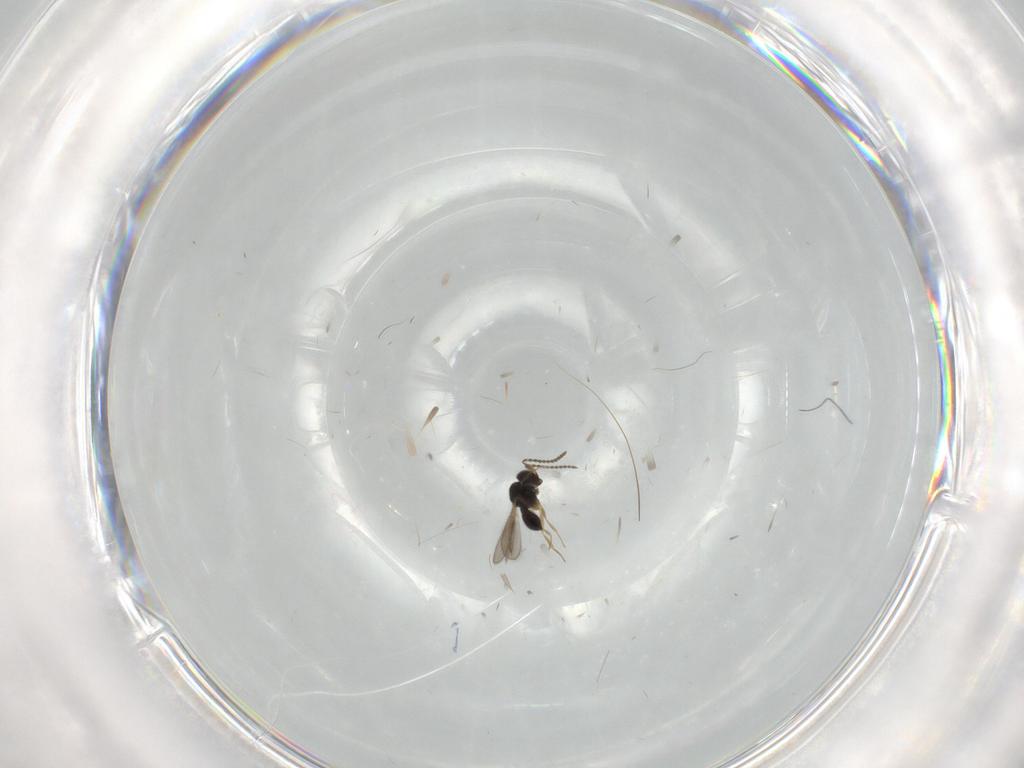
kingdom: Animalia
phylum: Arthropoda
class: Insecta
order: Hymenoptera
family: Scelionidae
